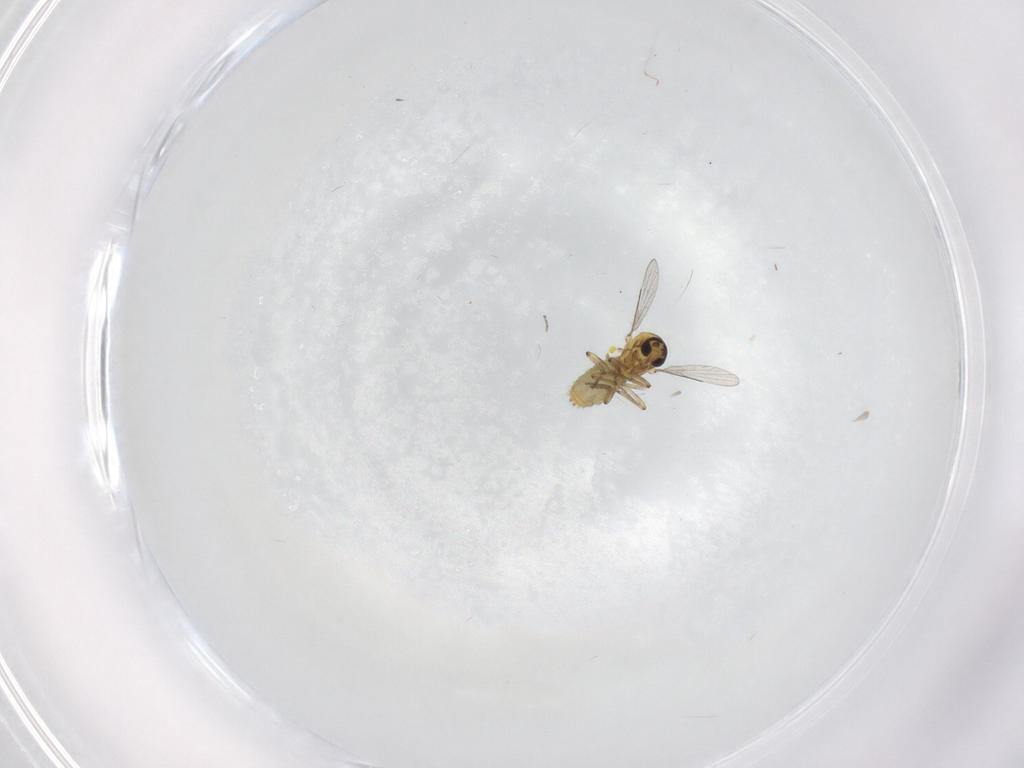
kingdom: Animalia
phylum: Arthropoda
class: Insecta
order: Diptera
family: Ceratopogonidae
